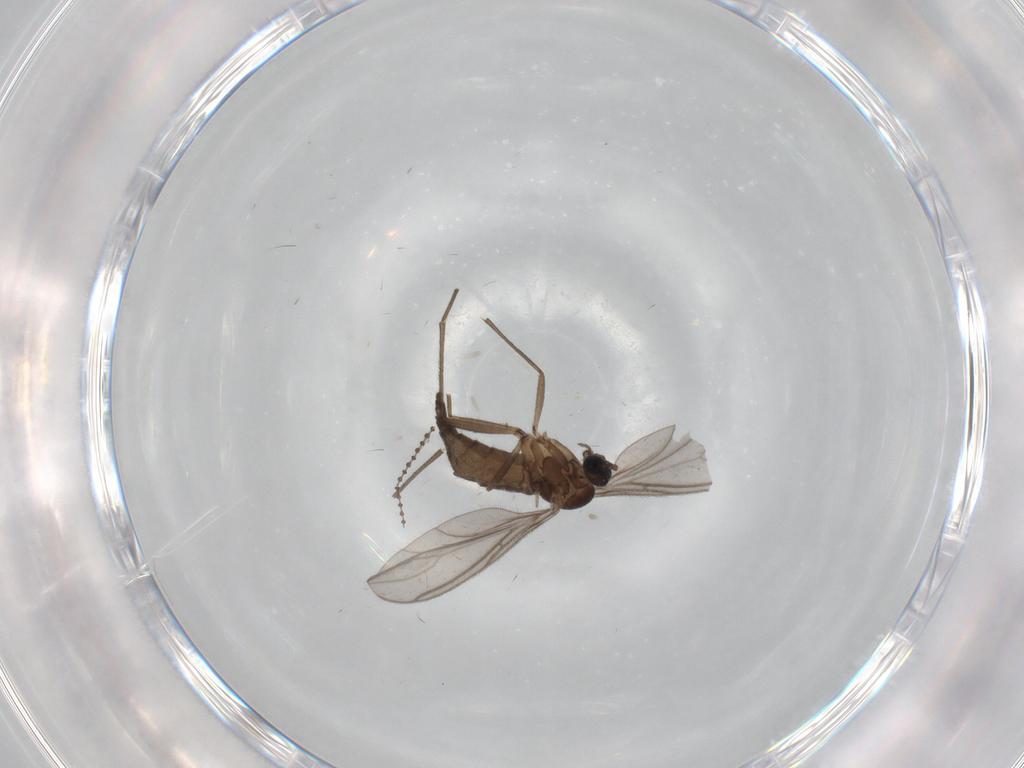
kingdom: Animalia
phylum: Arthropoda
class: Insecta
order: Diptera
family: Sciaridae
